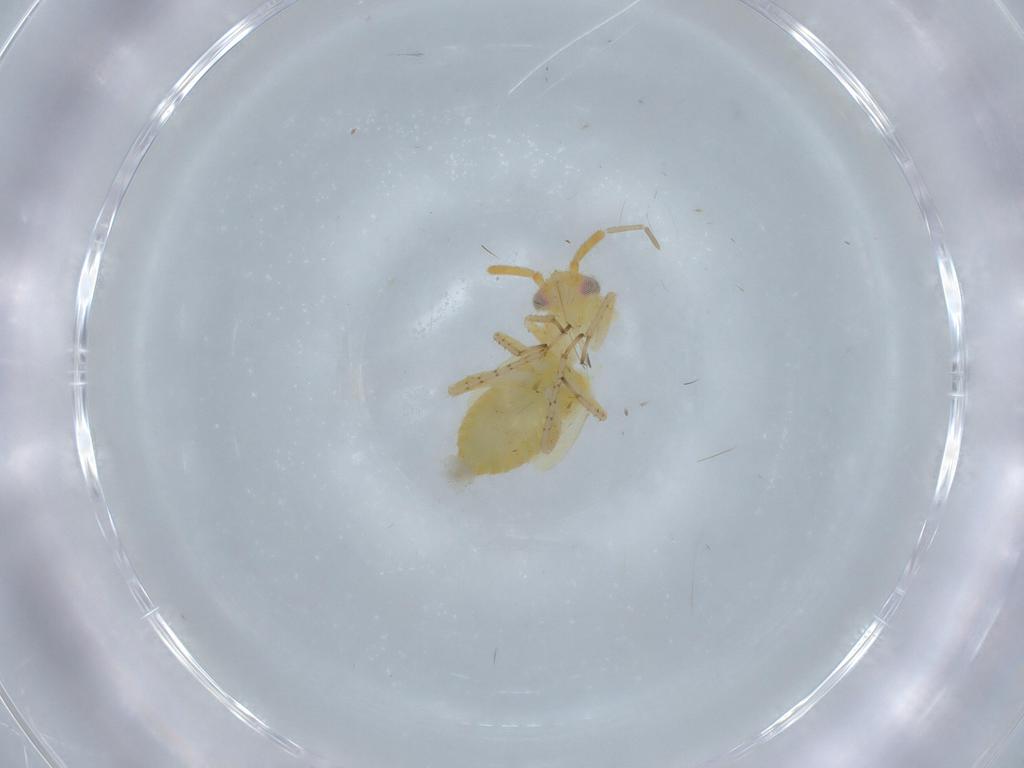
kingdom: Animalia
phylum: Arthropoda
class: Insecta
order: Hemiptera
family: Miridae
